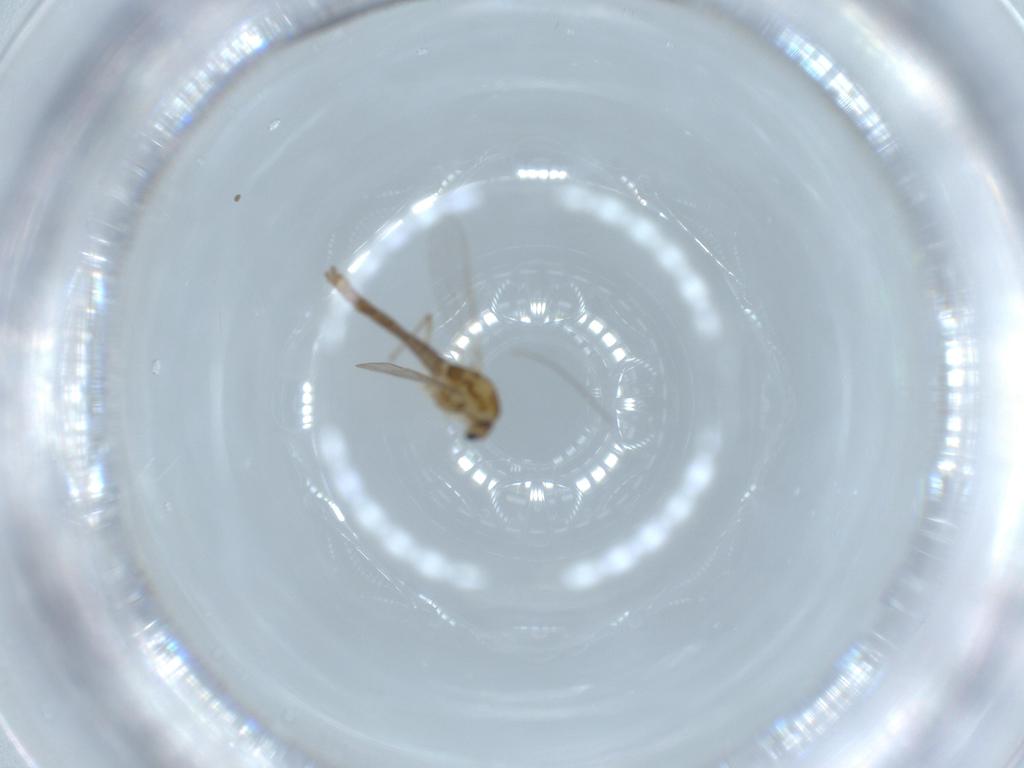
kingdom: Animalia
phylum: Arthropoda
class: Insecta
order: Diptera
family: Chironomidae
